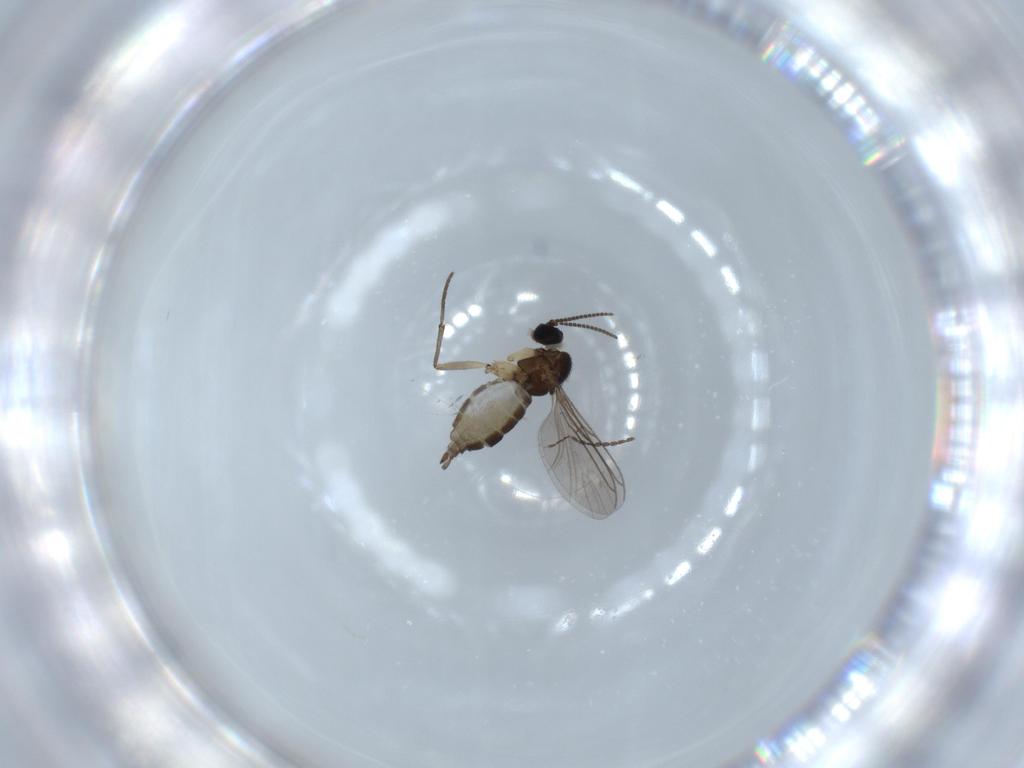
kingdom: Animalia
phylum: Arthropoda
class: Insecta
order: Diptera
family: Sciaridae
